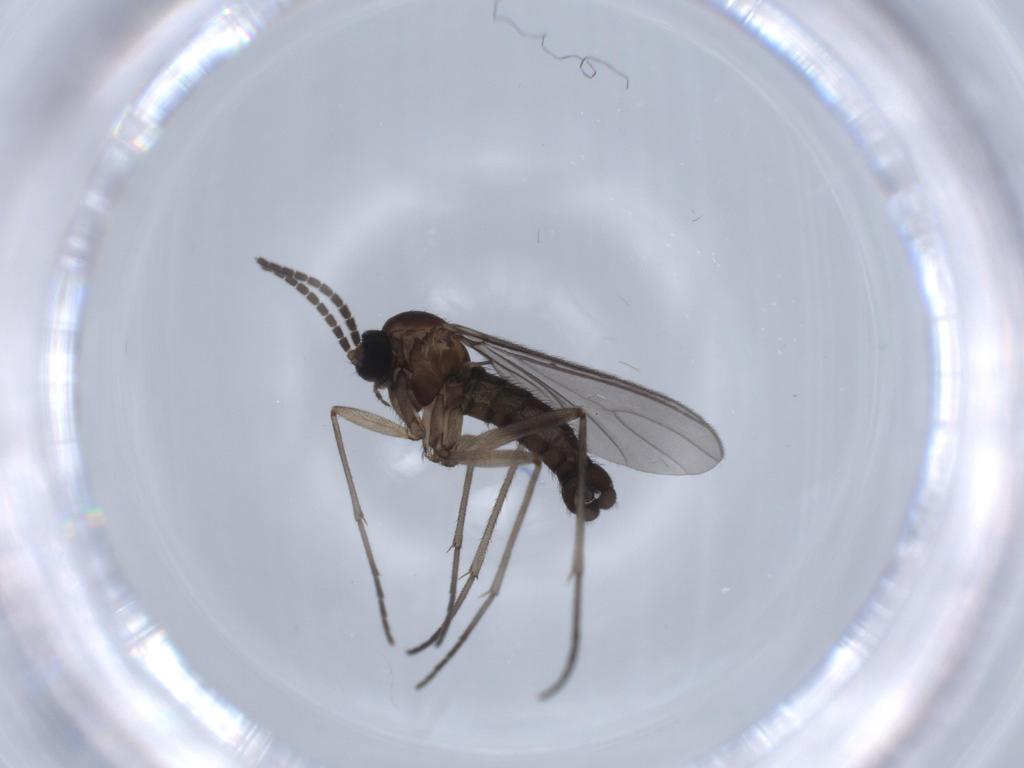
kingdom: Animalia
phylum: Arthropoda
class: Insecta
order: Diptera
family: Sciaridae
